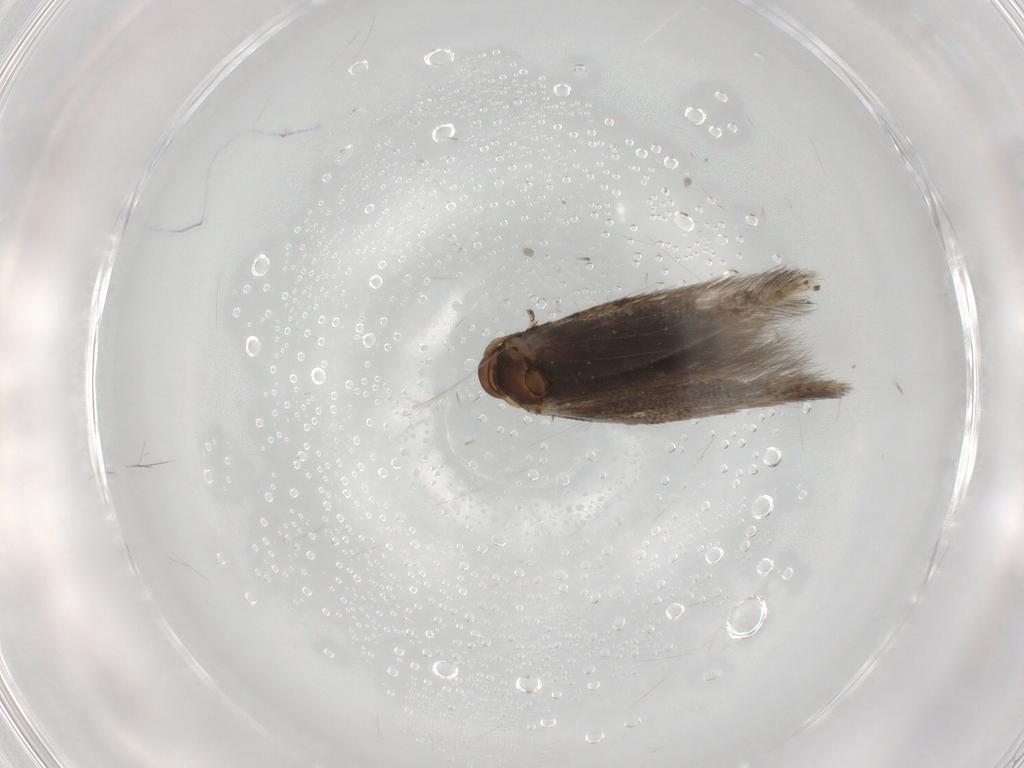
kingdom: Animalia
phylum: Arthropoda
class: Insecta
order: Lepidoptera
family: Elachistidae
